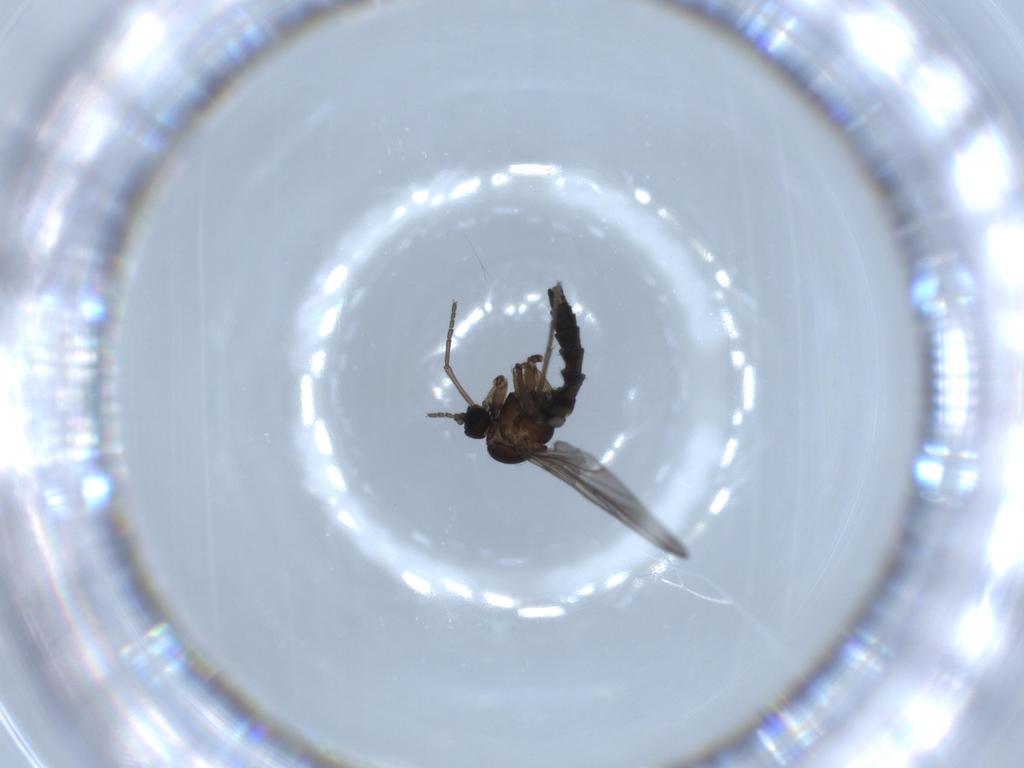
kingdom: Animalia
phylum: Arthropoda
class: Insecta
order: Diptera
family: Sciaridae
